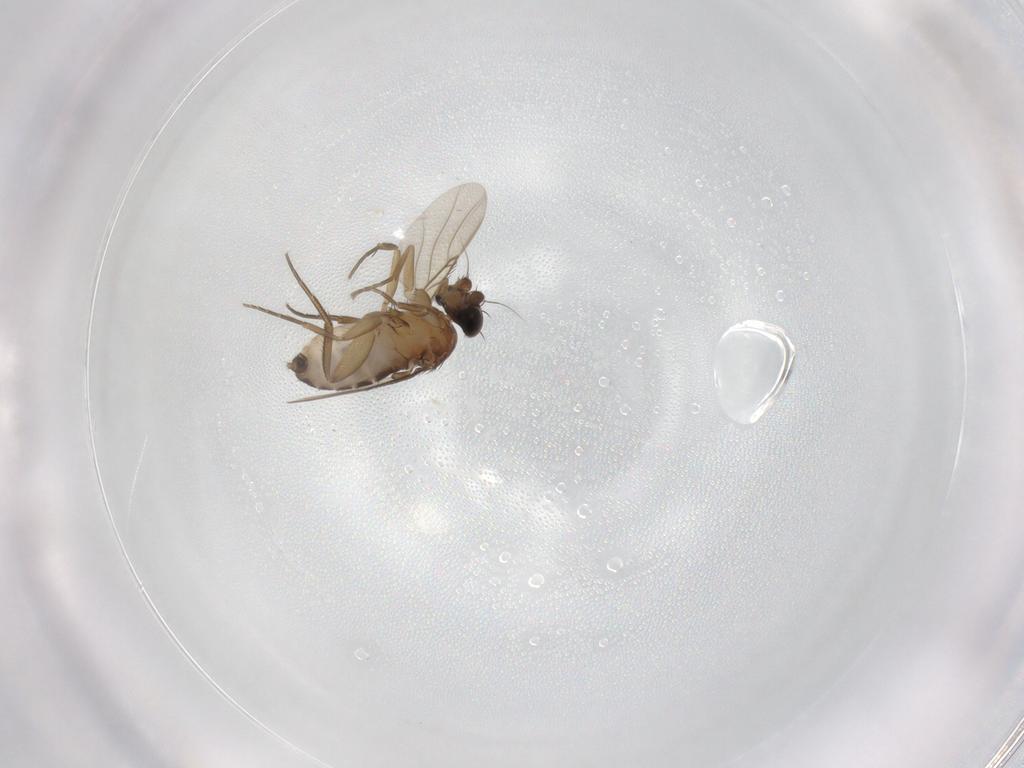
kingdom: Animalia
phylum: Arthropoda
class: Insecta
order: Diptera
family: Phoridae
